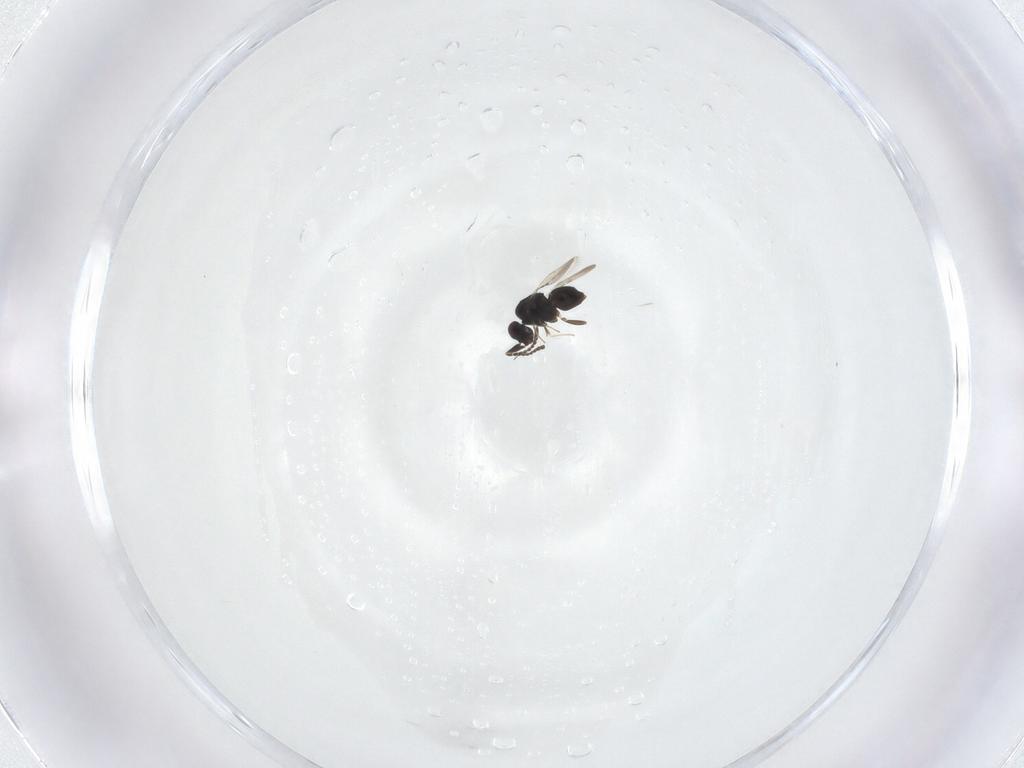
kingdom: Animalia
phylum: Arthropoda
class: Insecta
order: Hymenoptera
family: Ceraphronidae
